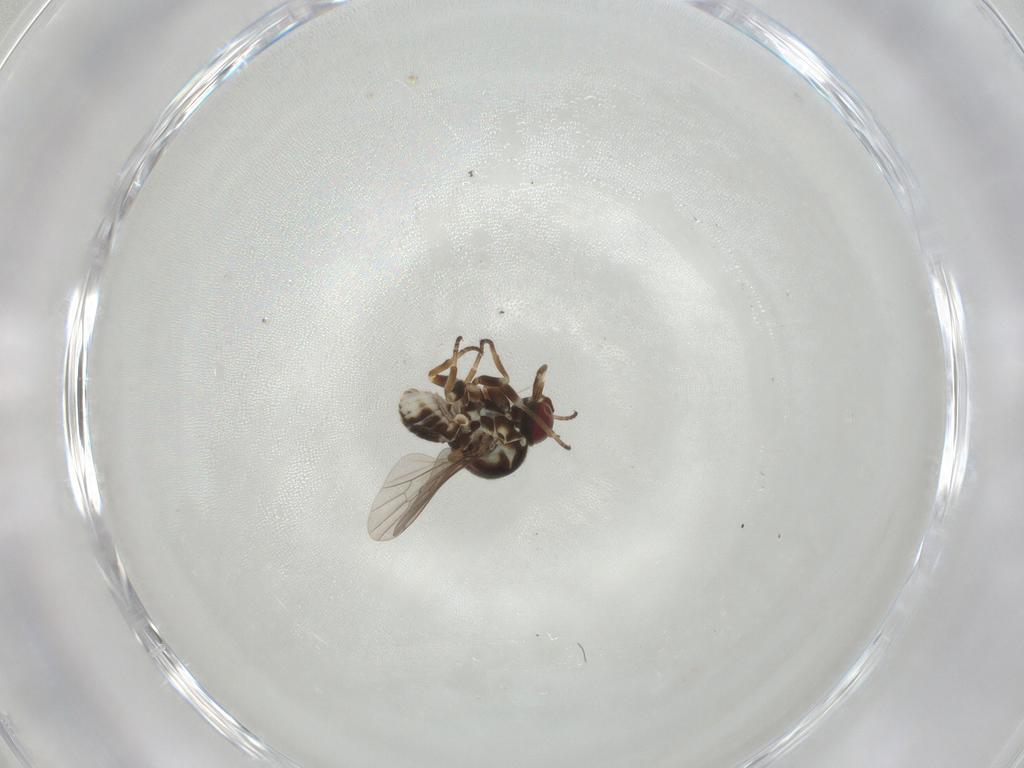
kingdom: Animalia
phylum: Arthropoda
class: Insecta
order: Diptera
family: Bombyliidae
